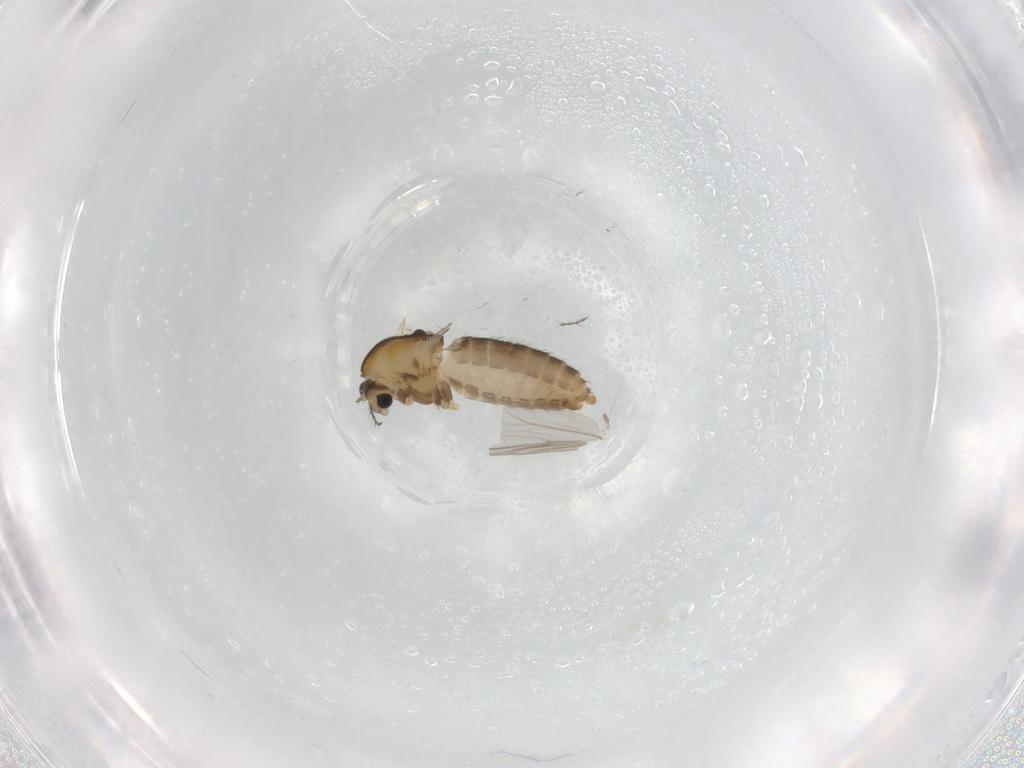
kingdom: Animalia
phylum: Arthropoda
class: Insecta
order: Diptera
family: Chironomidae
